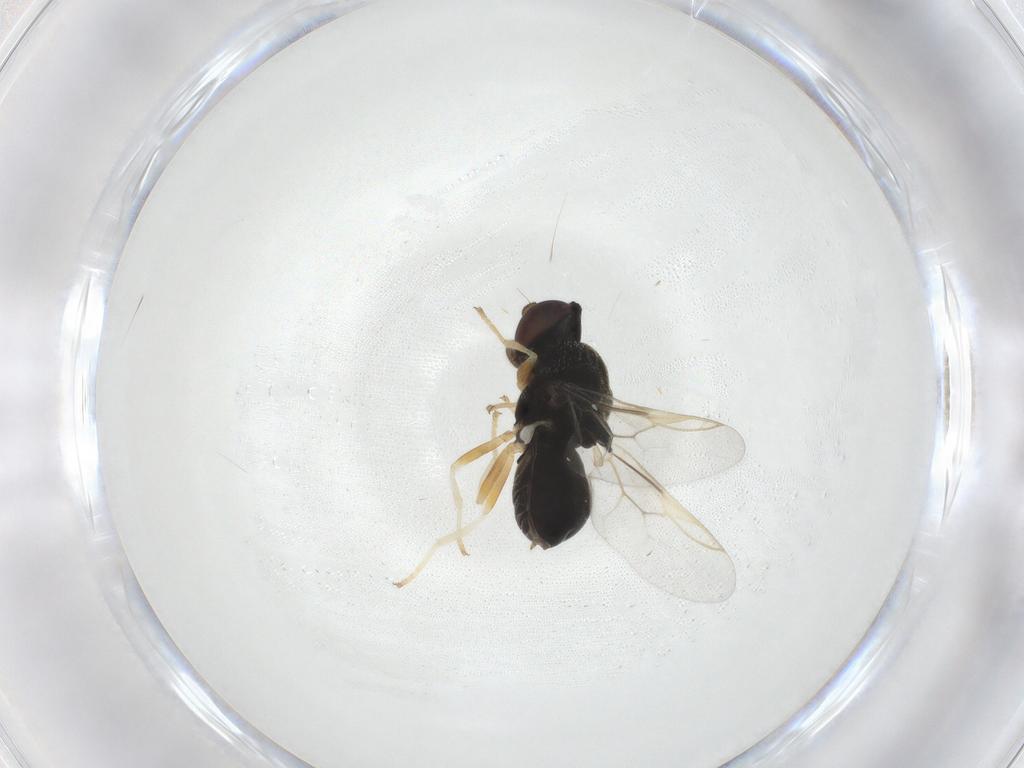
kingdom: Animalia
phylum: Arthropoda
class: Insecta
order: Diptera
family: Stratiomyidae
